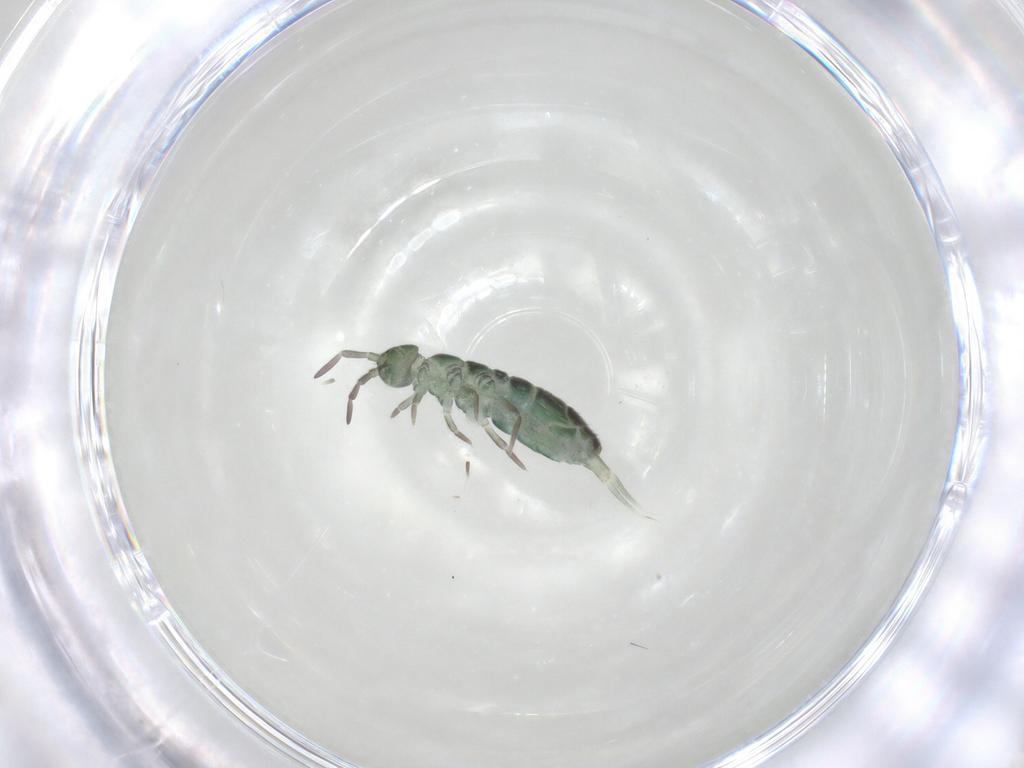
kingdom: Animalia
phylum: Arthropoda
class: Collembola
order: Entomobryomorpha
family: Isotomidae
